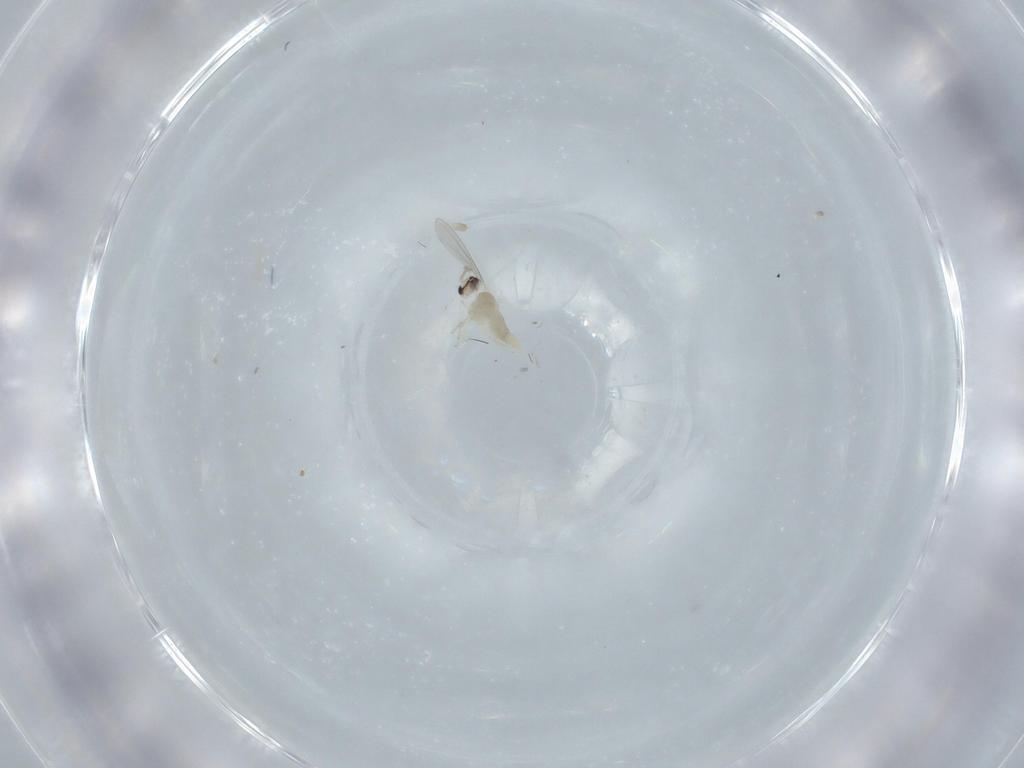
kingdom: Animalia
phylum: Arthropoda
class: Insecta
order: Diptera
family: Cecidomyiidae
